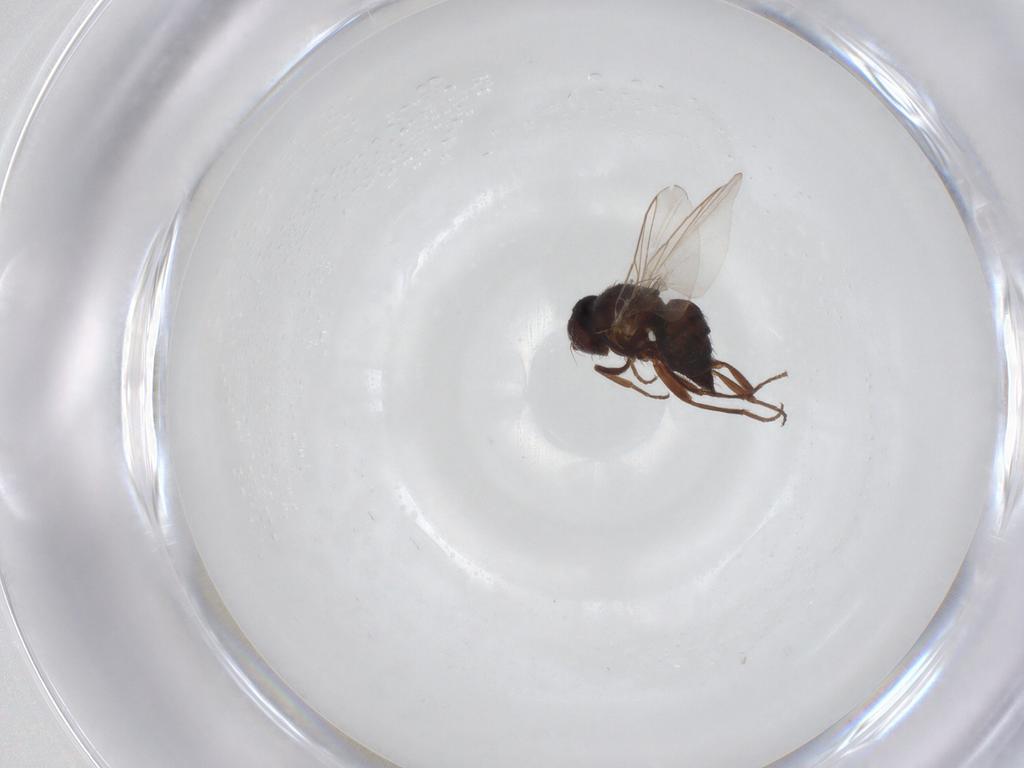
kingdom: Animalia
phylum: Arthropoda
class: Insecta
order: Diptera
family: Agromyzidae
